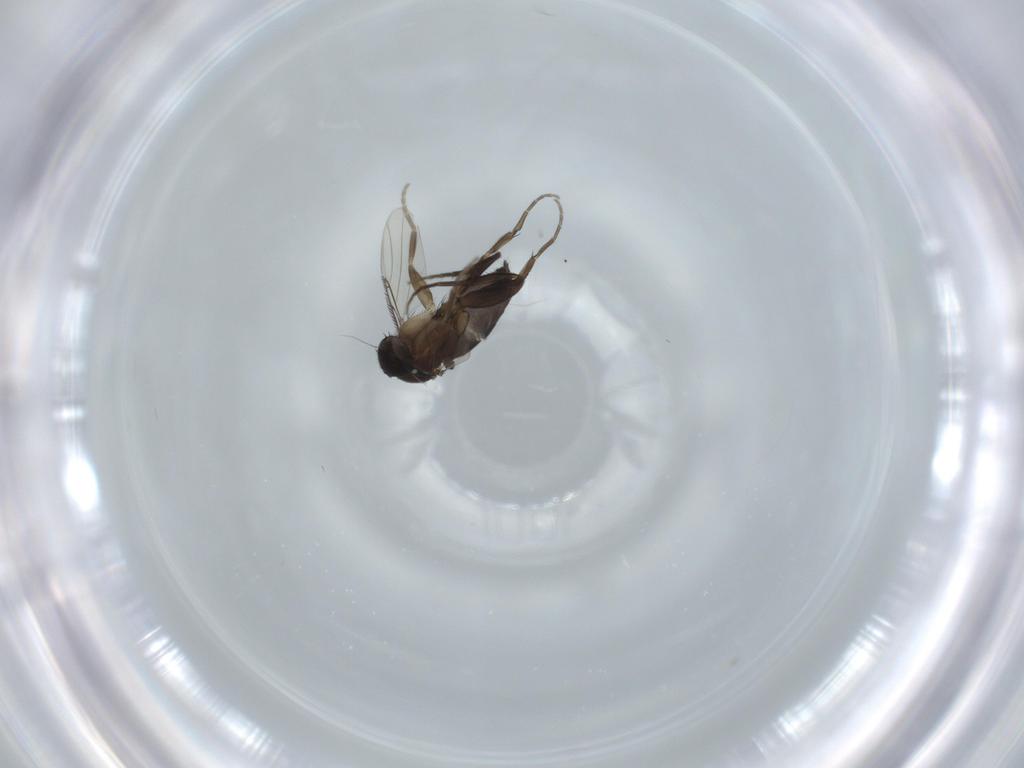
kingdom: Animalia
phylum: Arthropoda
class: Insecta
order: Diptera
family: Phoridae
